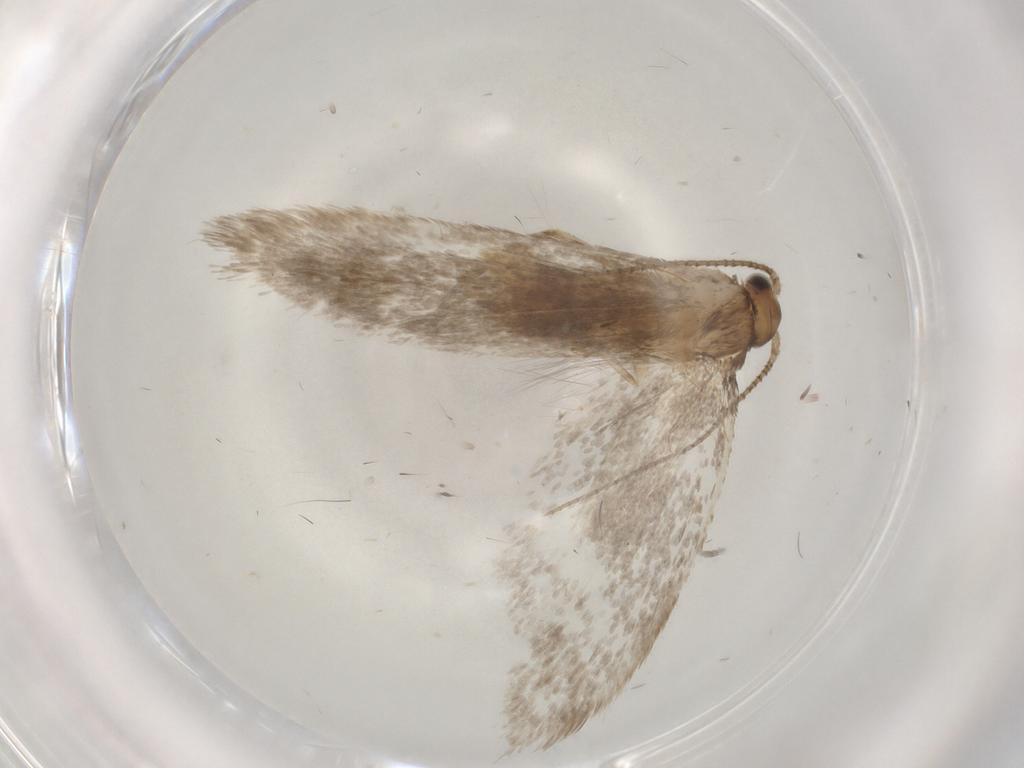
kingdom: Animalia
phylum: Arthropoda
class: Insecta
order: Lepidoptera
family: Dryadaulidae
